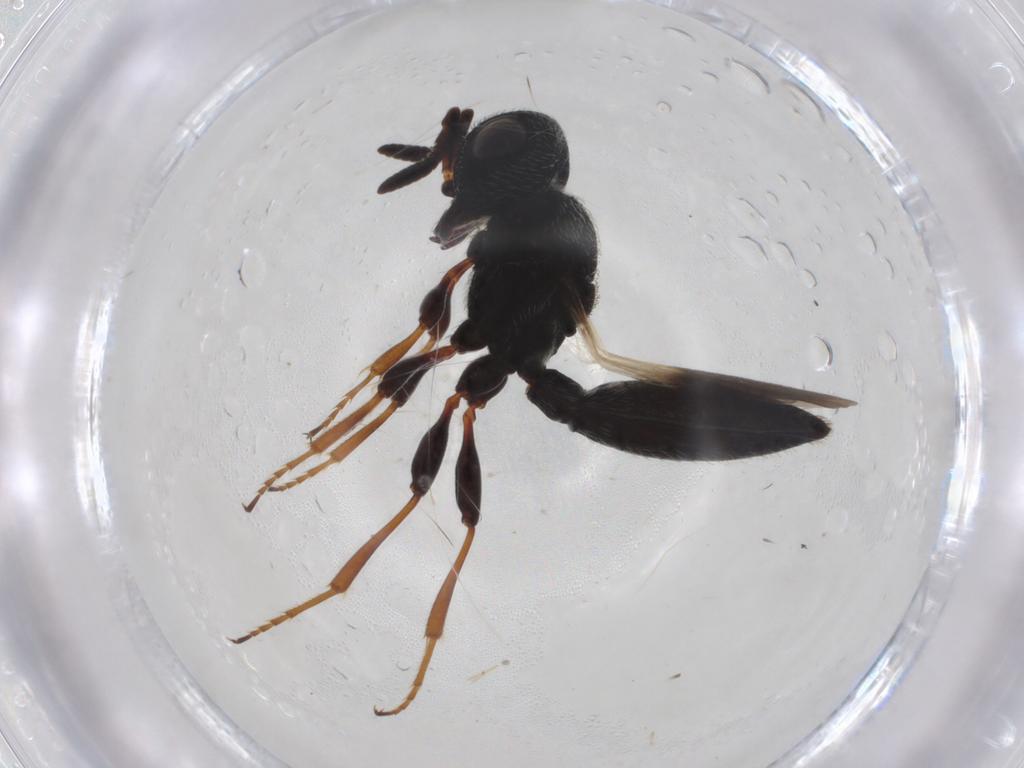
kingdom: Animalia
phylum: Arthropoda
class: Insecta
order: Hymenoptera
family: Scelionidae
